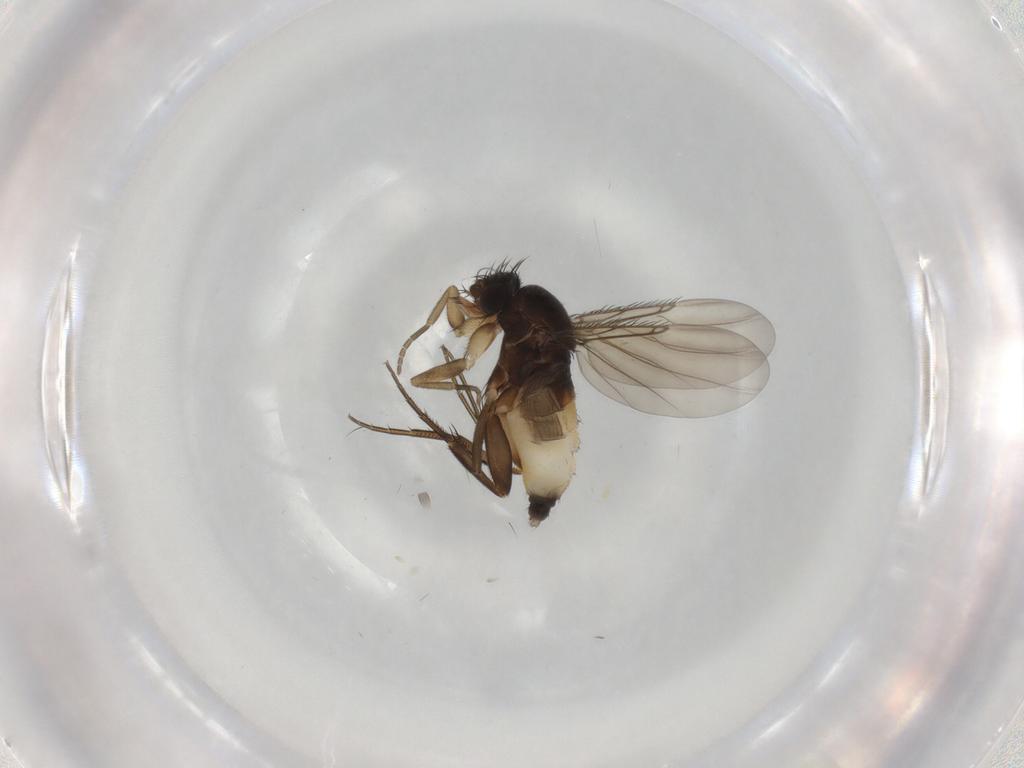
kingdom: Animalia
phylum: Arthropoda
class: Insecta
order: Diptera
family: Phoridae
